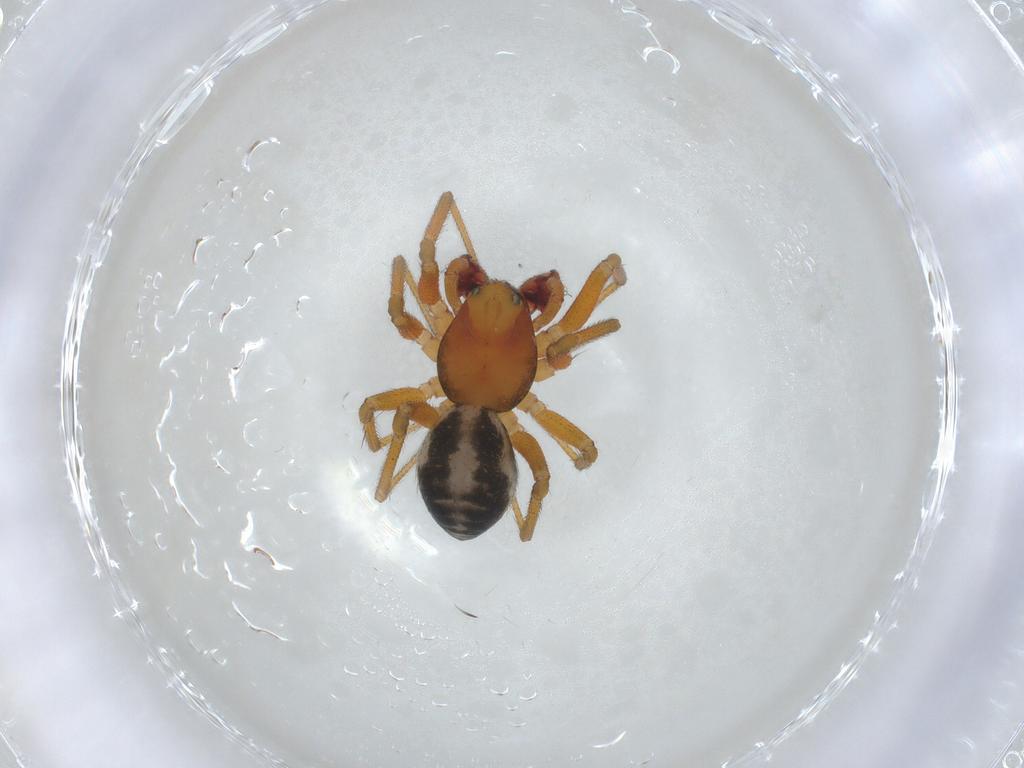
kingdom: Animalia
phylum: Arthropoda
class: Arachnida
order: Araneae
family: Linyphiidae
